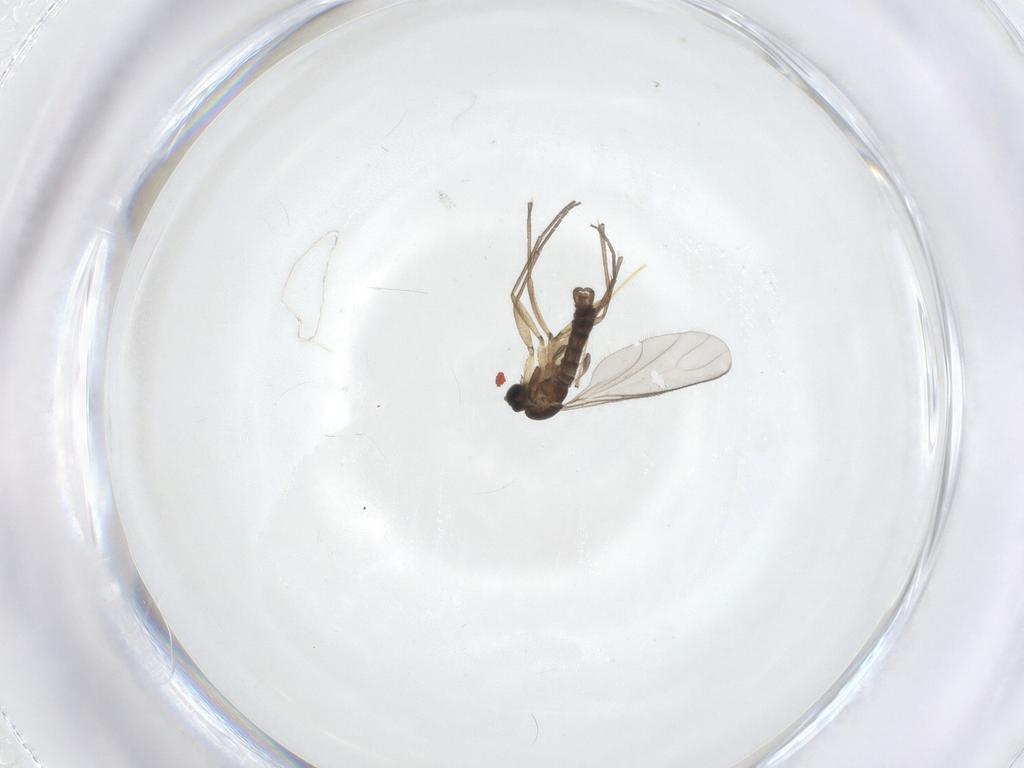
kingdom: Animalia
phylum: Arthropoda
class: Insecta
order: Diptera
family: Sciaridae
